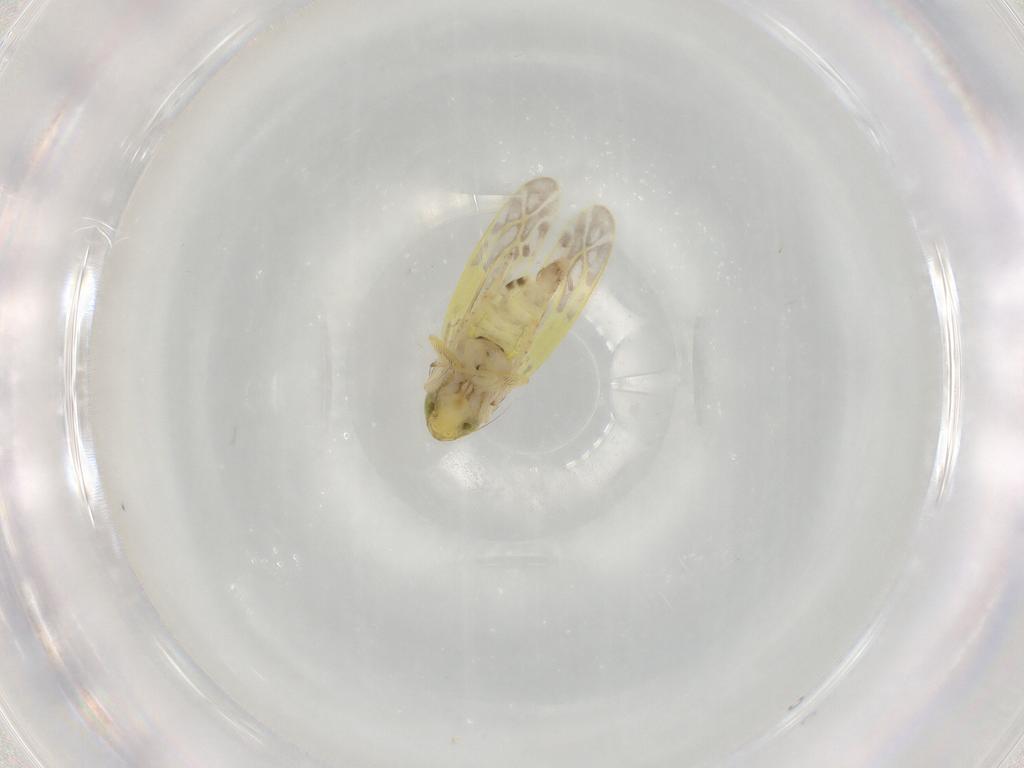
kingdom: Animalia
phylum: Arthropoda
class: Insecta
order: Hemiptera
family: Cicadellidae
